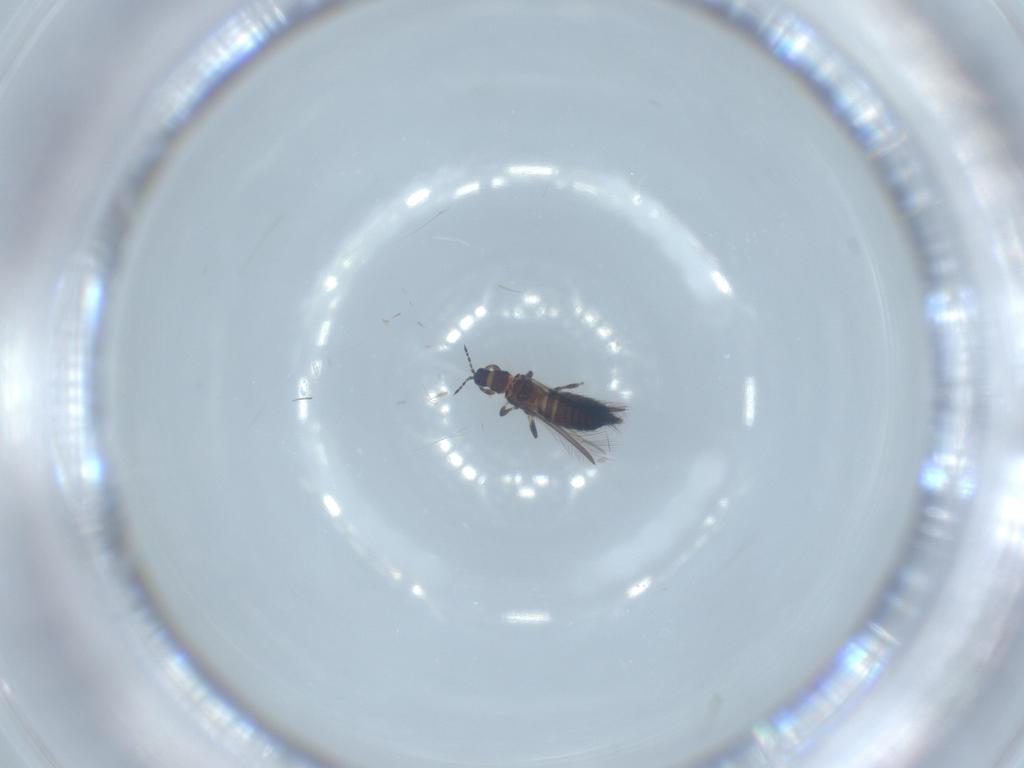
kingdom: Animalia
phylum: Arthropoda
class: Insecta
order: Thysanoptera
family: Thripidae
